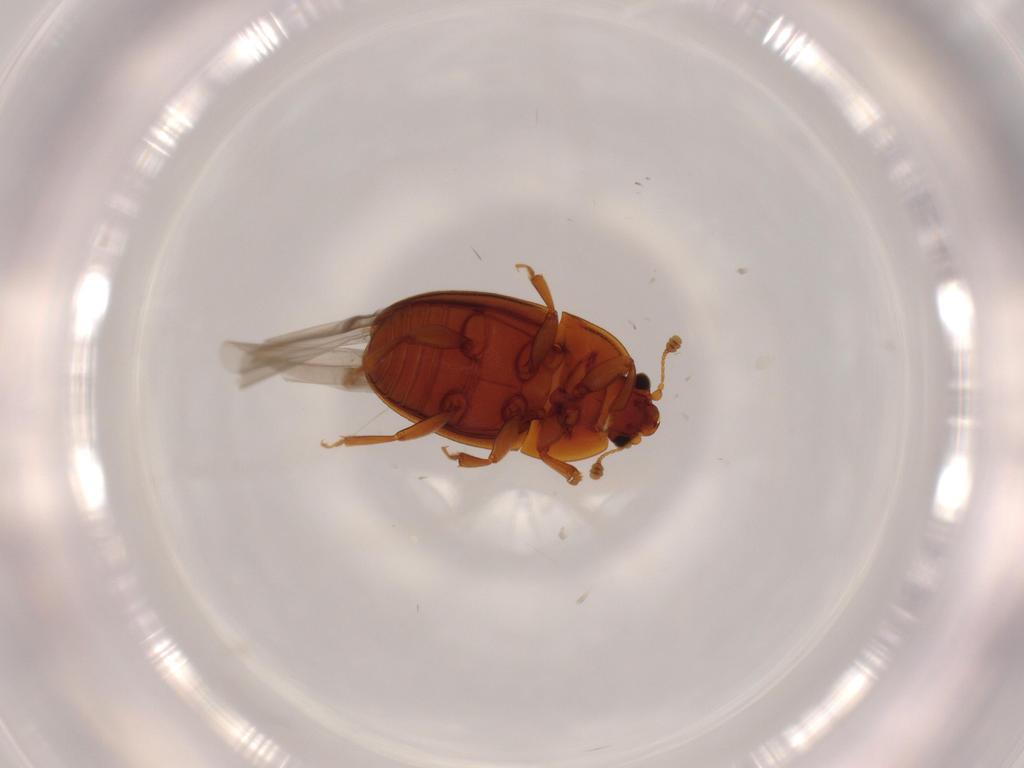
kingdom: Animalia
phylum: Arthropoda
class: Insecta
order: Coleoptera
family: Nitidulidae
